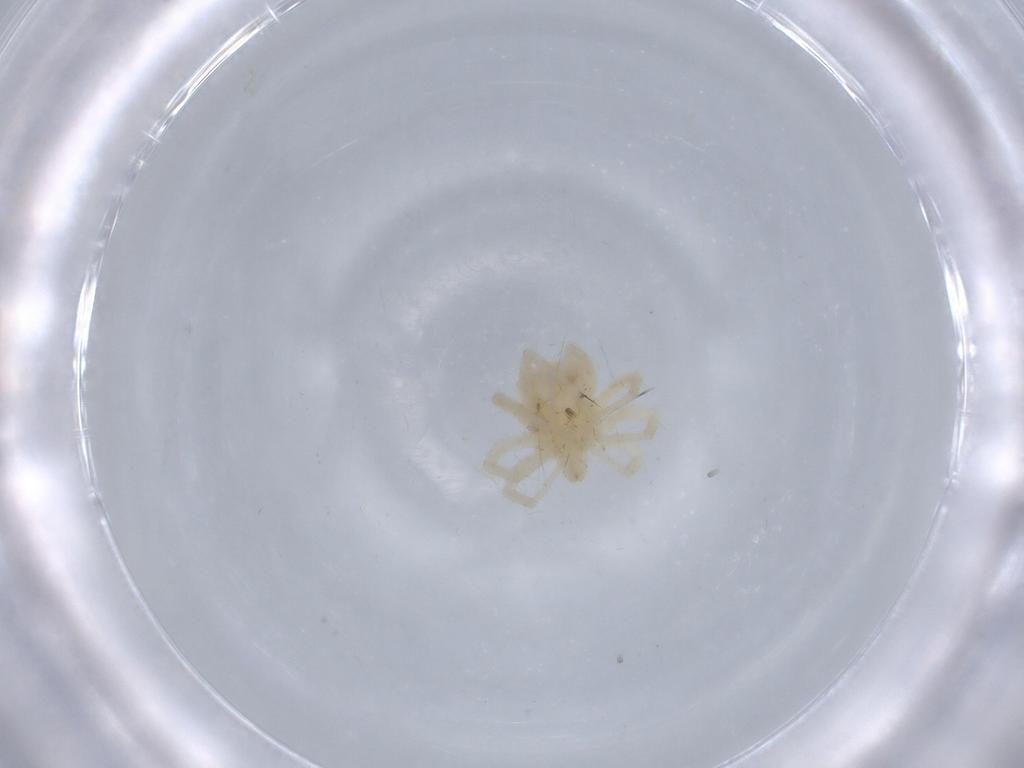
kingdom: Animalia
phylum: Arthropoda
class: Arachnida
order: Trombidiformes
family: Anystidae
